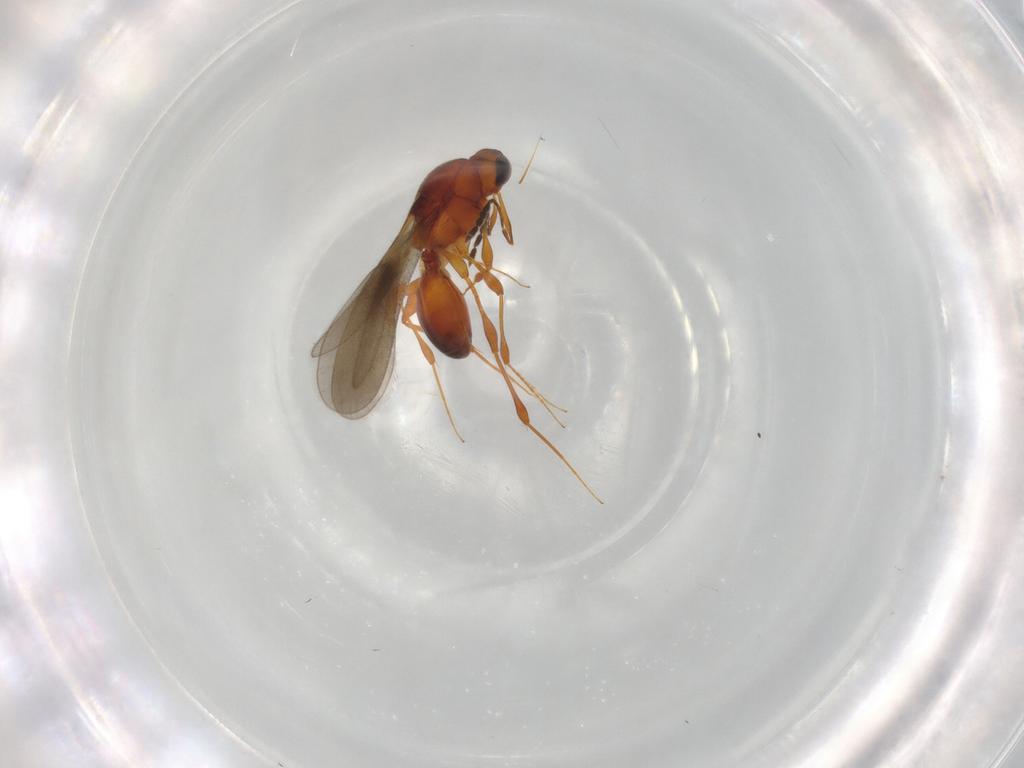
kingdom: Animalia
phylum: Arthropoda
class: Insecta
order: Hymenoptera
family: Platygastridae
